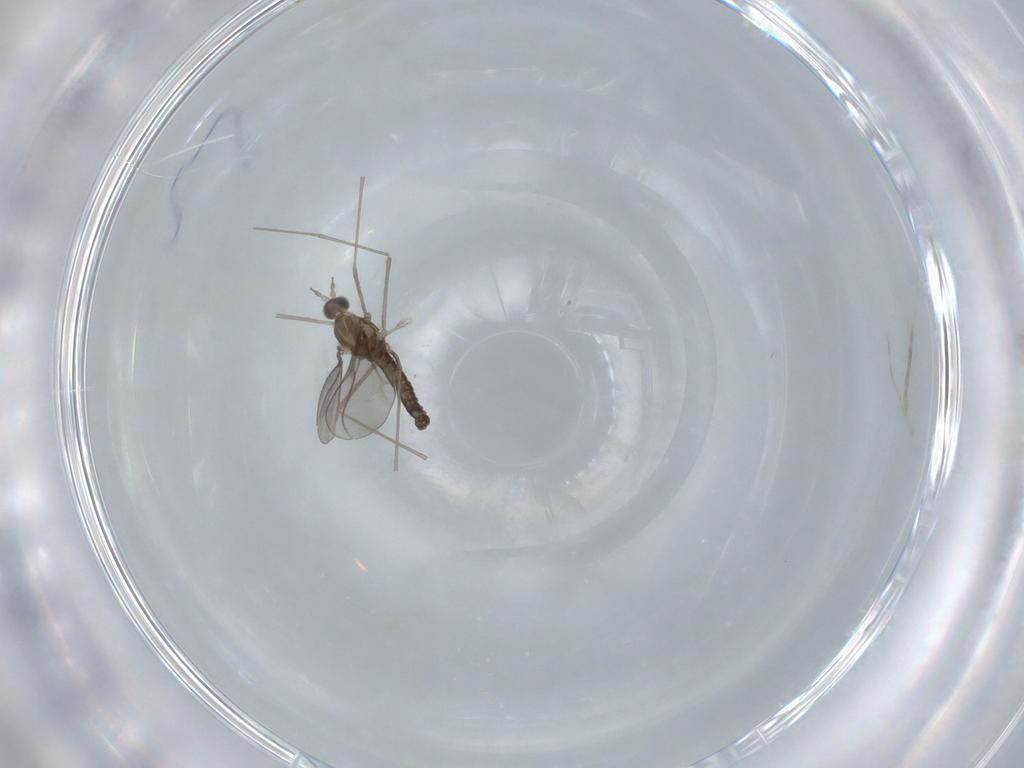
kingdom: Animalia
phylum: Arthropoda
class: Insecta
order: Diptera
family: Cecidomyiidae
